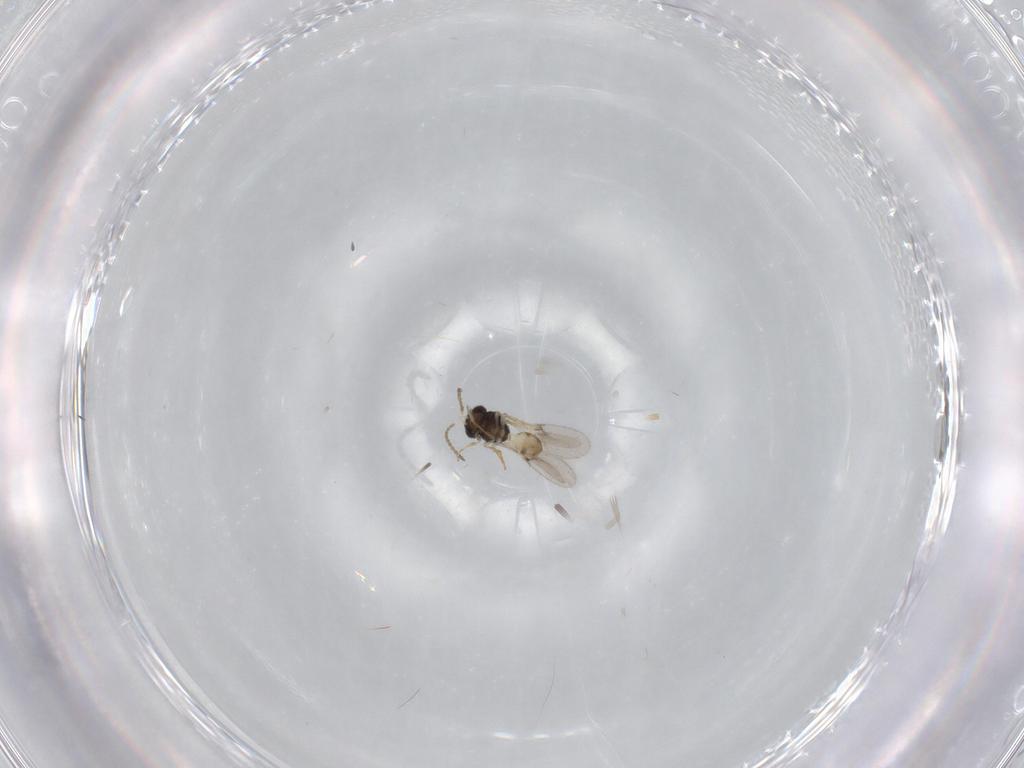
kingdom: Animalia
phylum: Arthropoda
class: Insecta
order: Hymenoptera
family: Scelionidae
